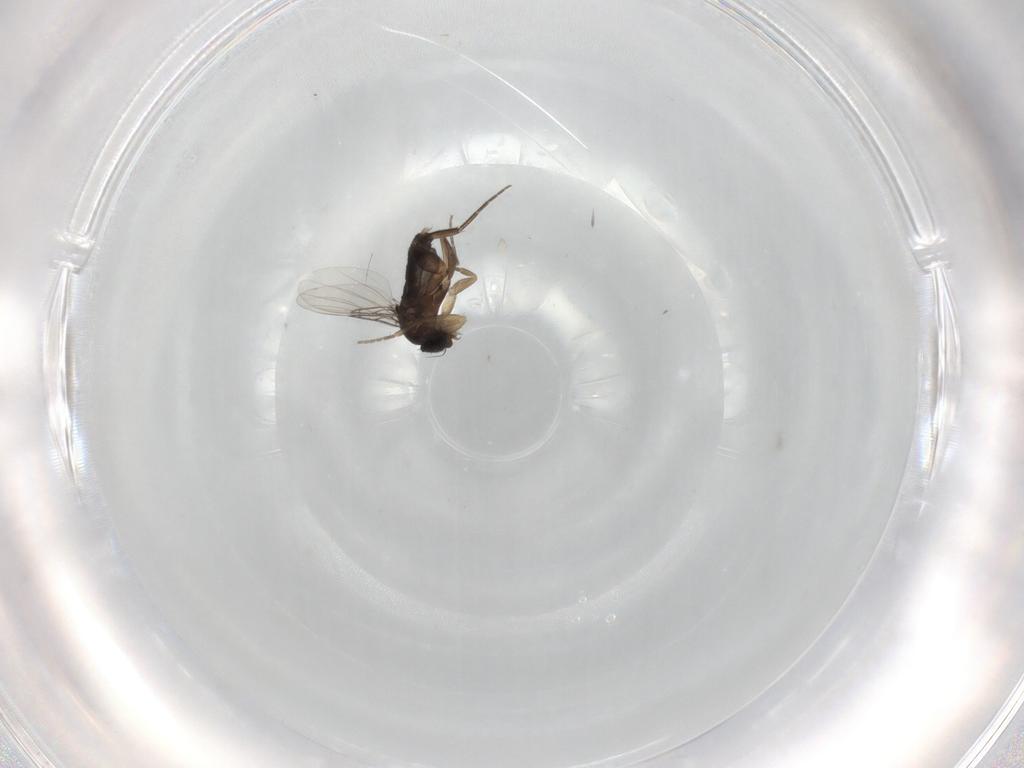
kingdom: Animalia
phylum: Arthropoda
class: Insecta
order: Diptera
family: Phoridae
